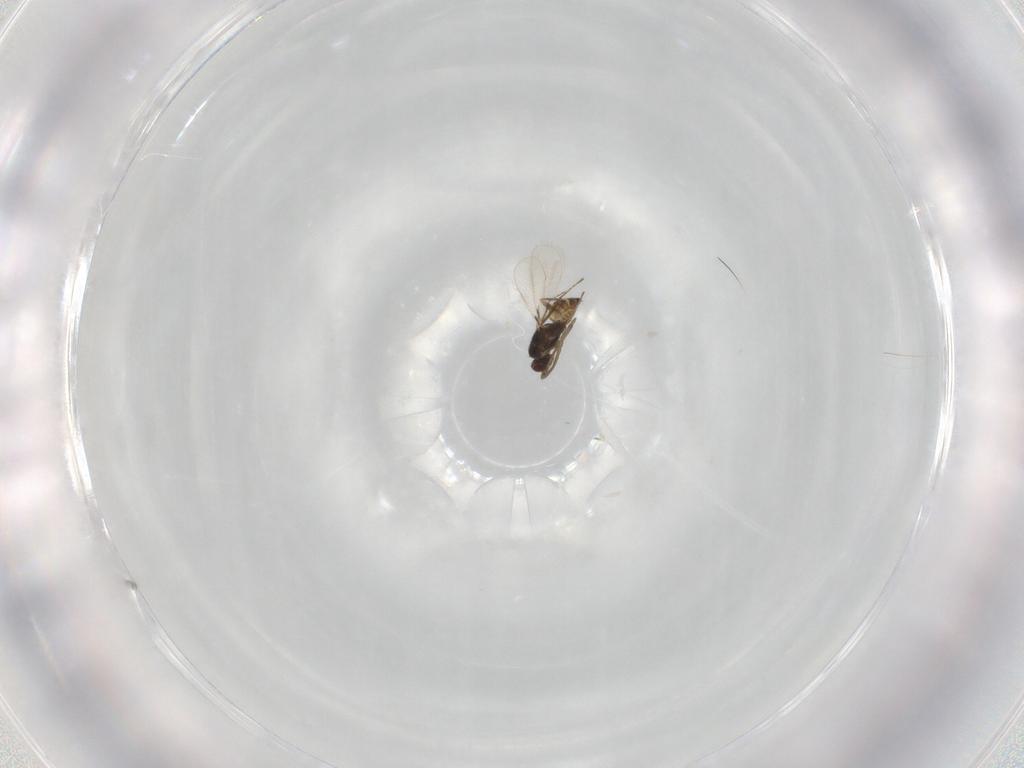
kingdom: Animalia
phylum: Arthropoda
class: Insecta
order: Hymenoptera
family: Mymaridae
